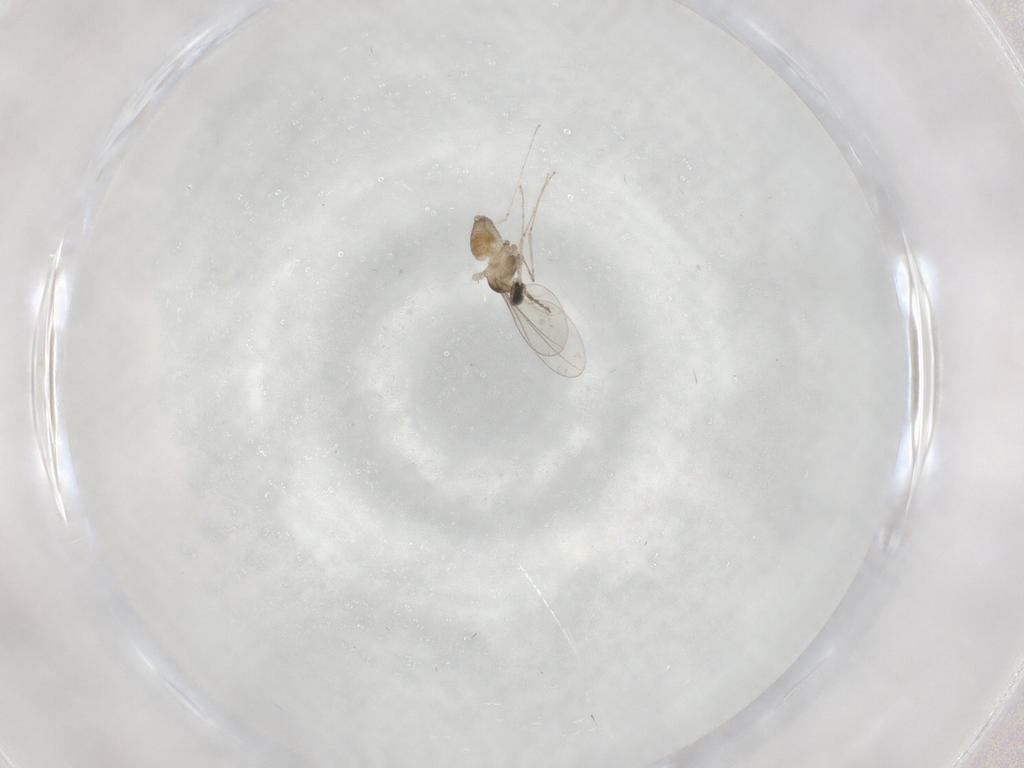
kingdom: Animalia
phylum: Arthropoda
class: Insecta
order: Diptera
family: Cecidomyiidae
